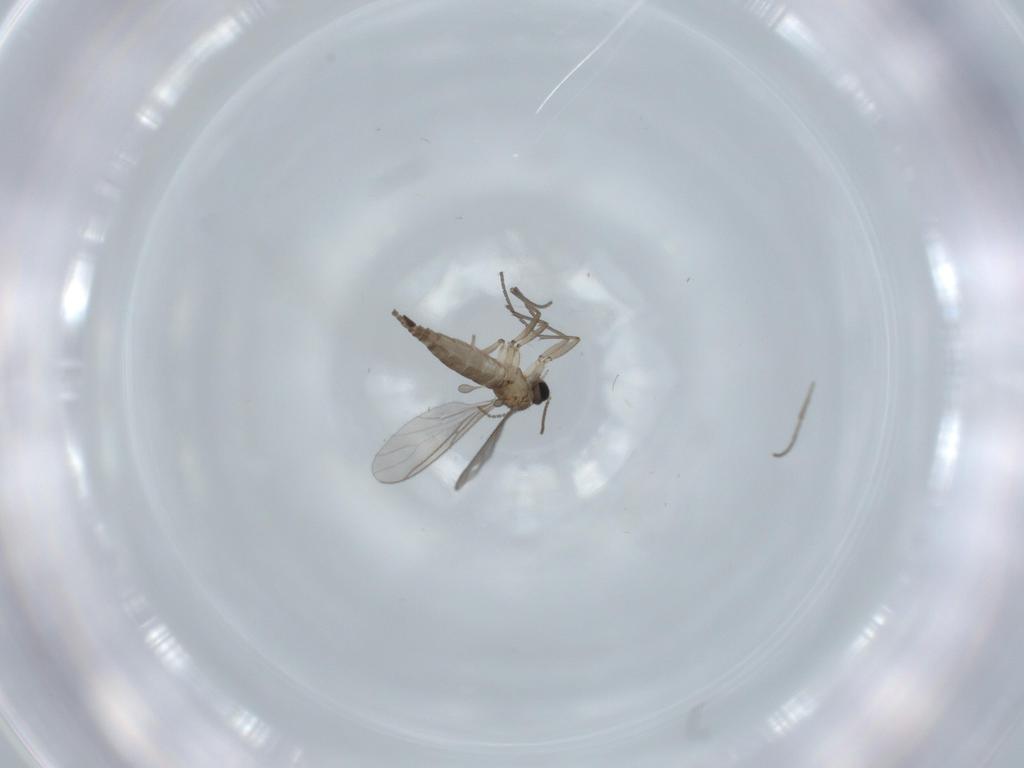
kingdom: Animalia
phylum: Arthropoda
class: Insecta
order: Diptera
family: Sciaridae
